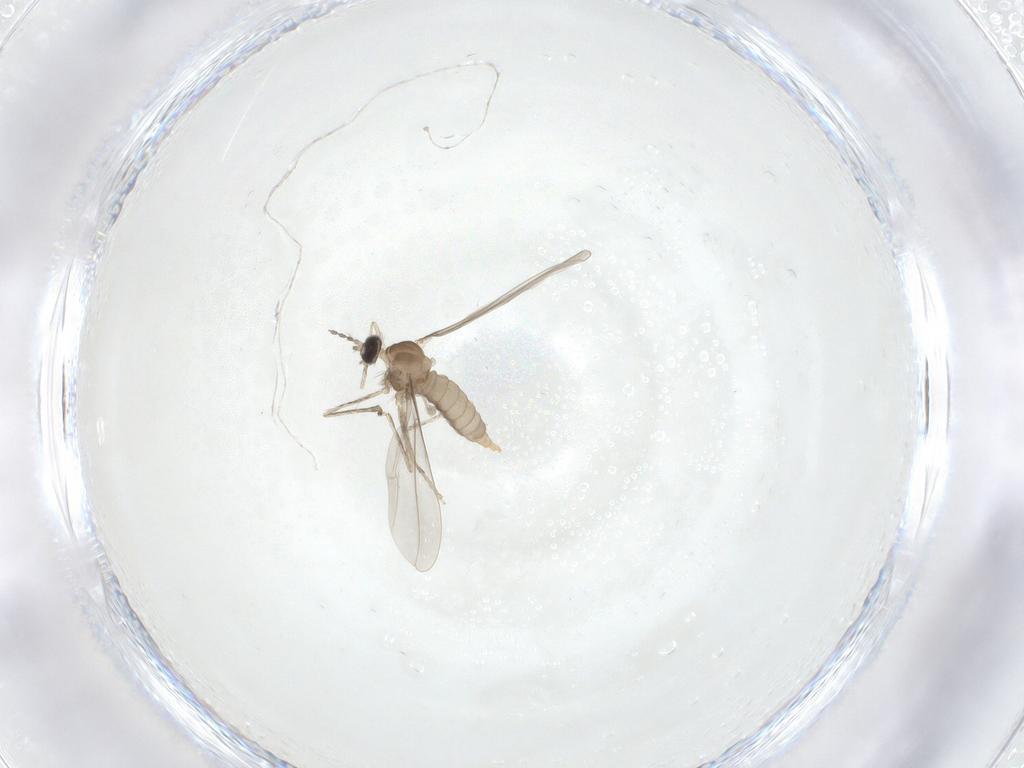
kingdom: Animalia
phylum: Arthropoda
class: Insecta
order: Diptera
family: Cecidomyiidae
